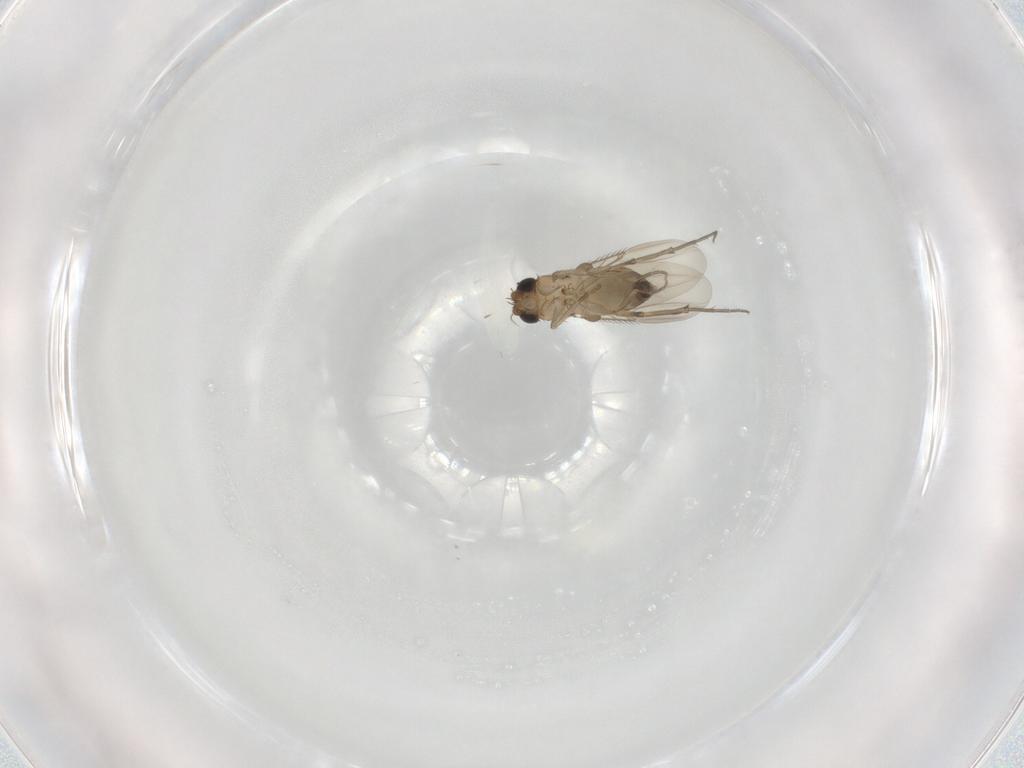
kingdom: Animalia
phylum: Arthropoda
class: Insecta
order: Diptera
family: Phoridae
